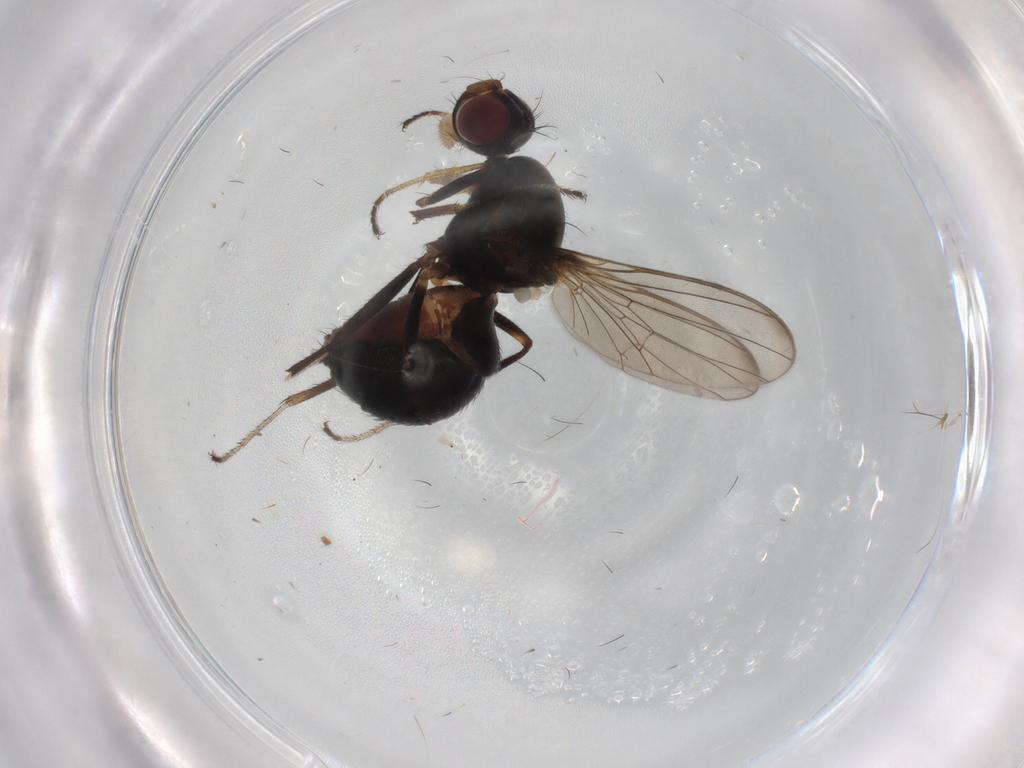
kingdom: Animalia
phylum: Arthropoda
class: Insecta
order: Diptera
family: Sepsidae
